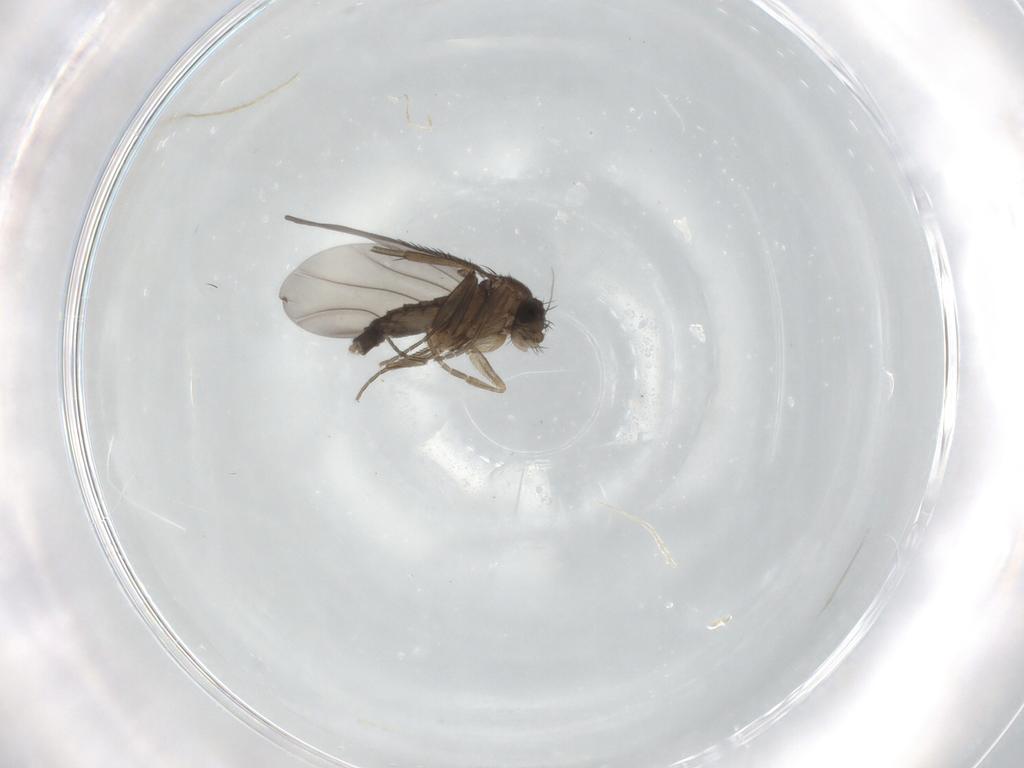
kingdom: Animalia
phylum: Arthropoda
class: Insecta
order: Diptera
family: Phoridae
